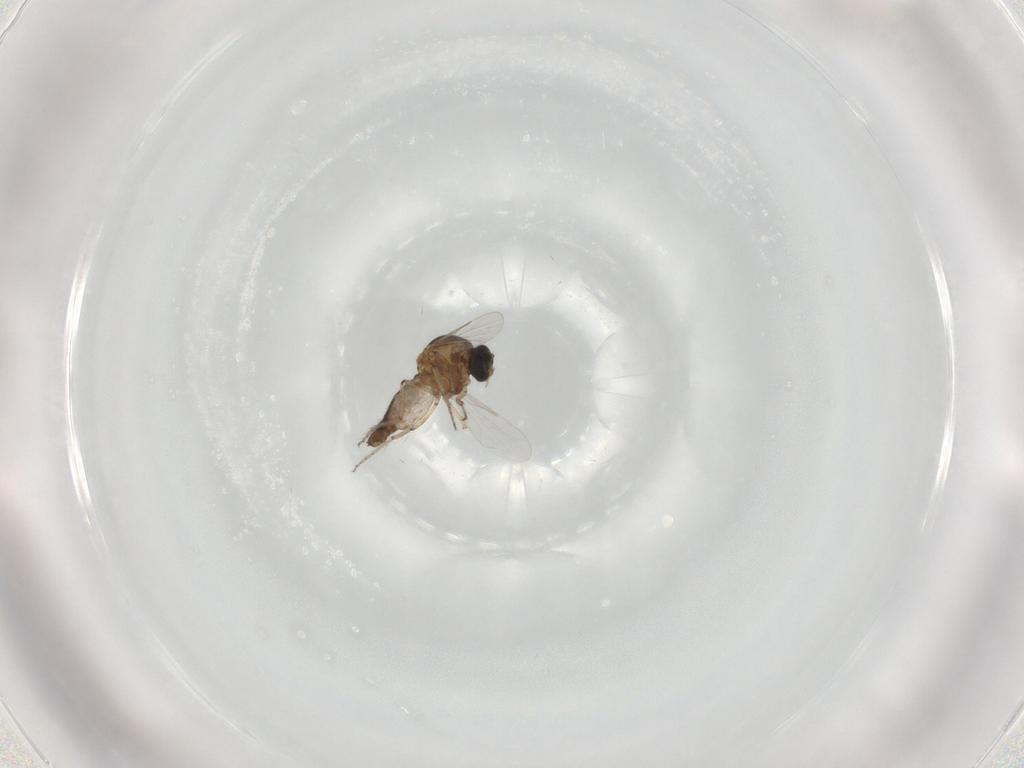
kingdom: Animalia
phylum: Arthropoda
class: Insecta
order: Diptera
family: Ceratopogonidae
